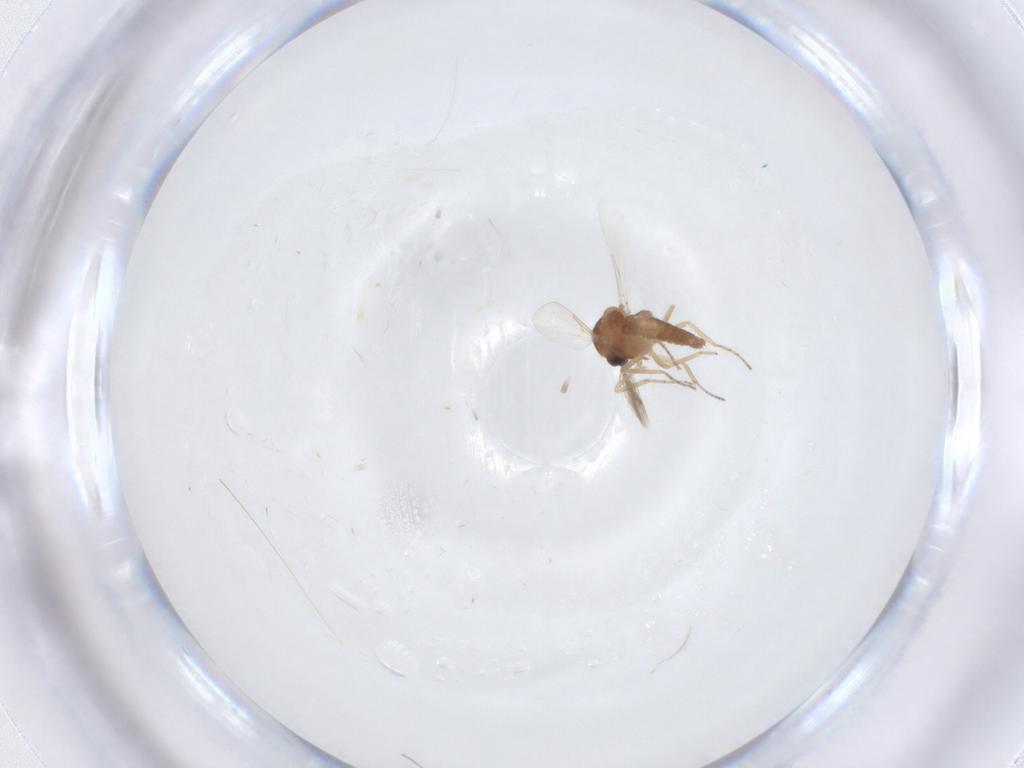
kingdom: Animalia
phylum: Arthropoda
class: Insecta
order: Diptera
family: Ceratopogonidae
